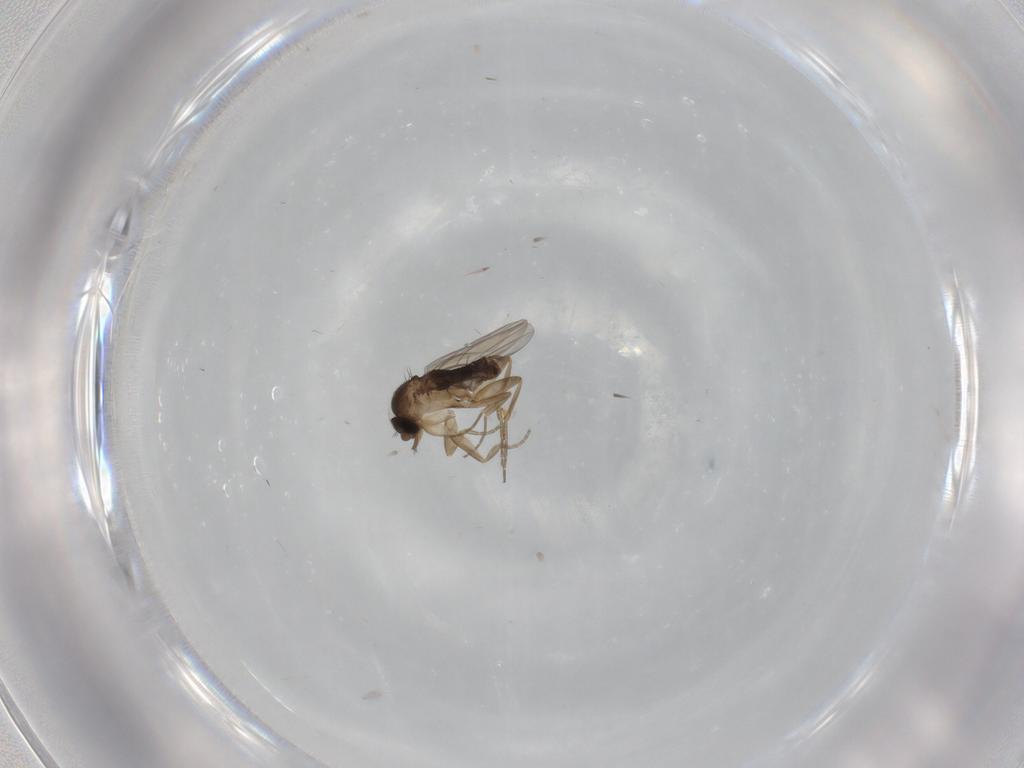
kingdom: Animalia
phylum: Arthropoda
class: Insecta
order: Diptera
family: Phoridae
